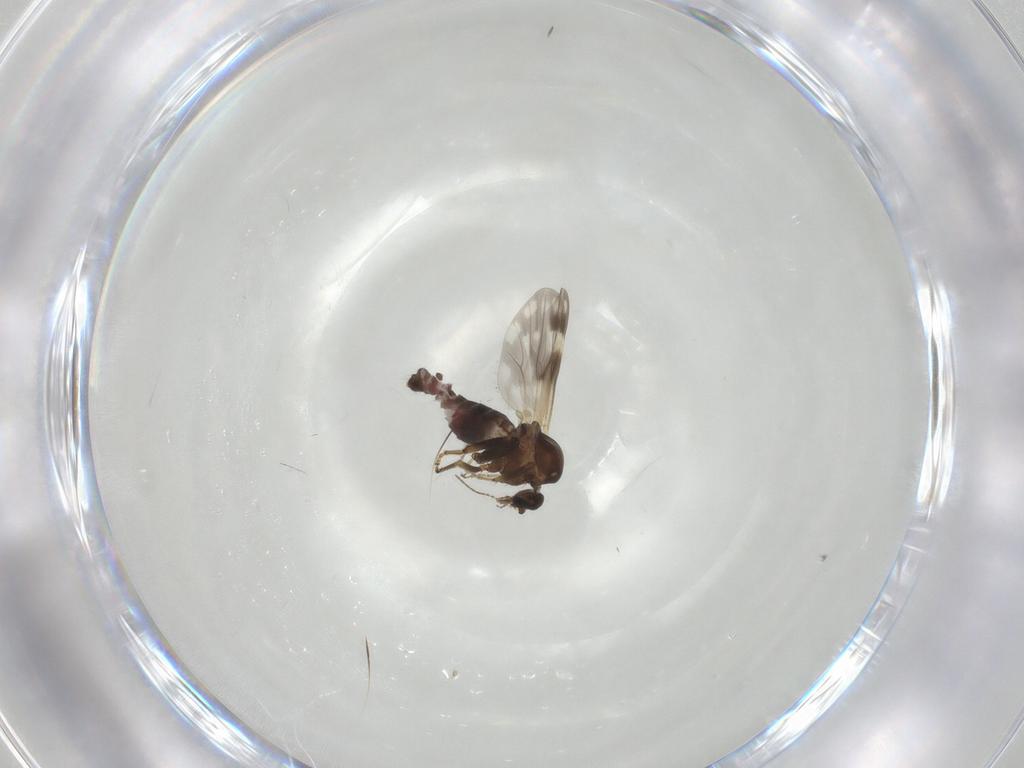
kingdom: Animalia
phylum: Arthropoda
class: Insecta
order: Diptera
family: Ceratopogonidae
